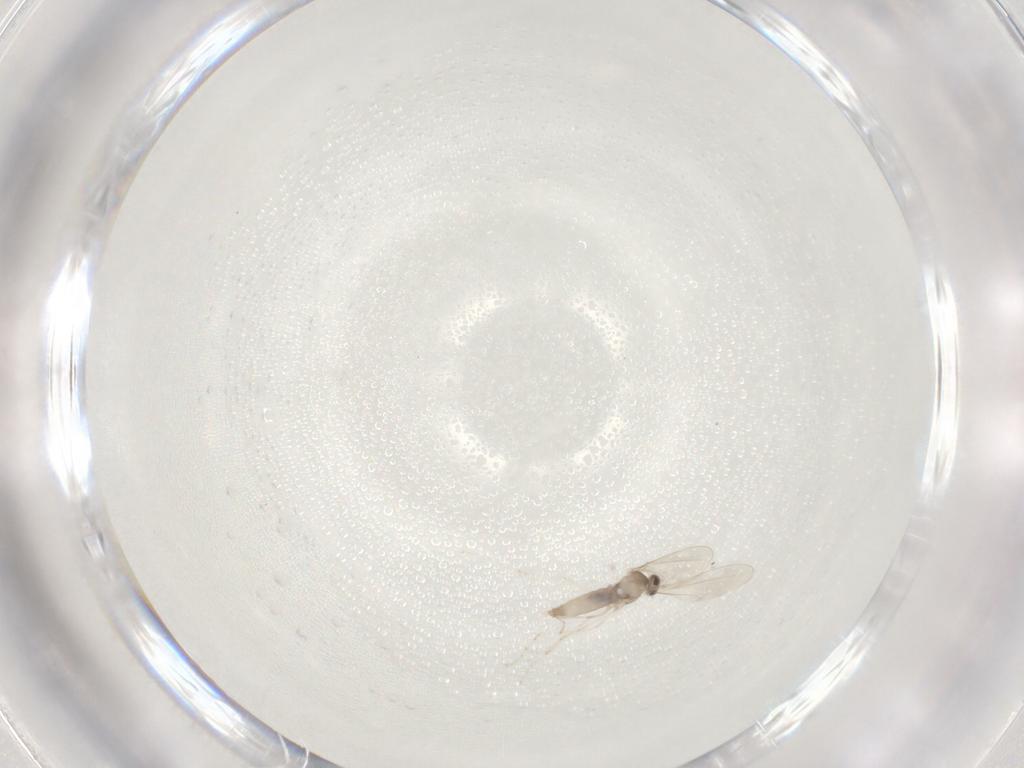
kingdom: Animalia
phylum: Arthropoda
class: Insecta
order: Diptera
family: Cecidomyiidae
